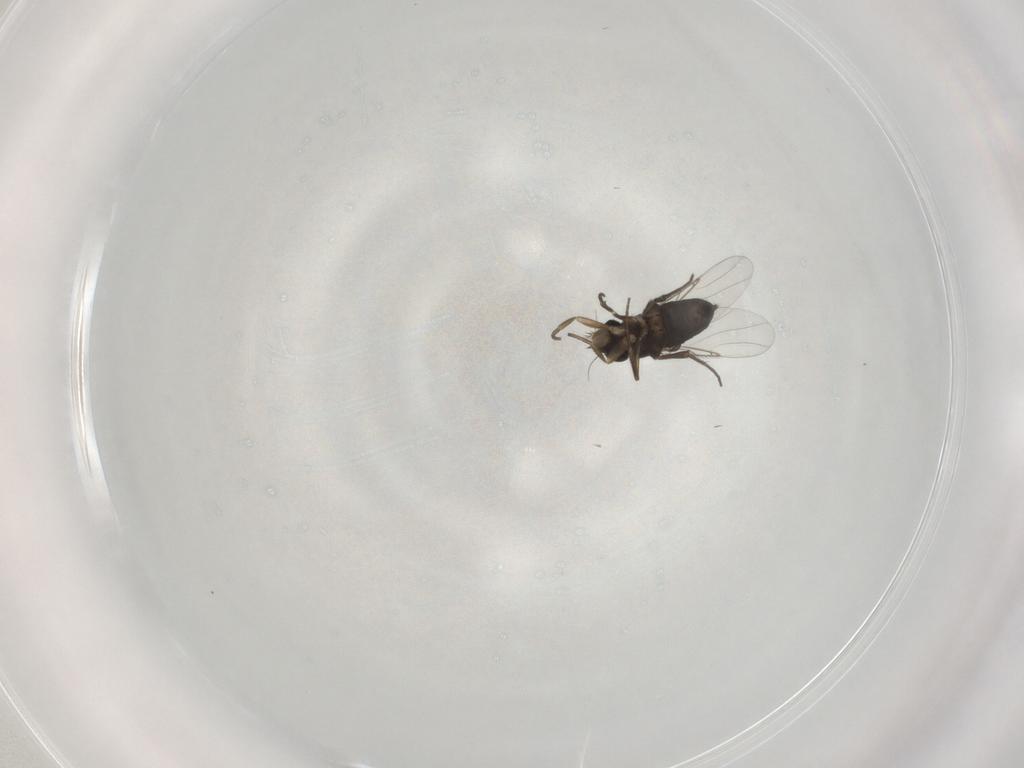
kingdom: Animalia
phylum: Arthropoda
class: Insecta
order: Diptera
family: Phoridae
